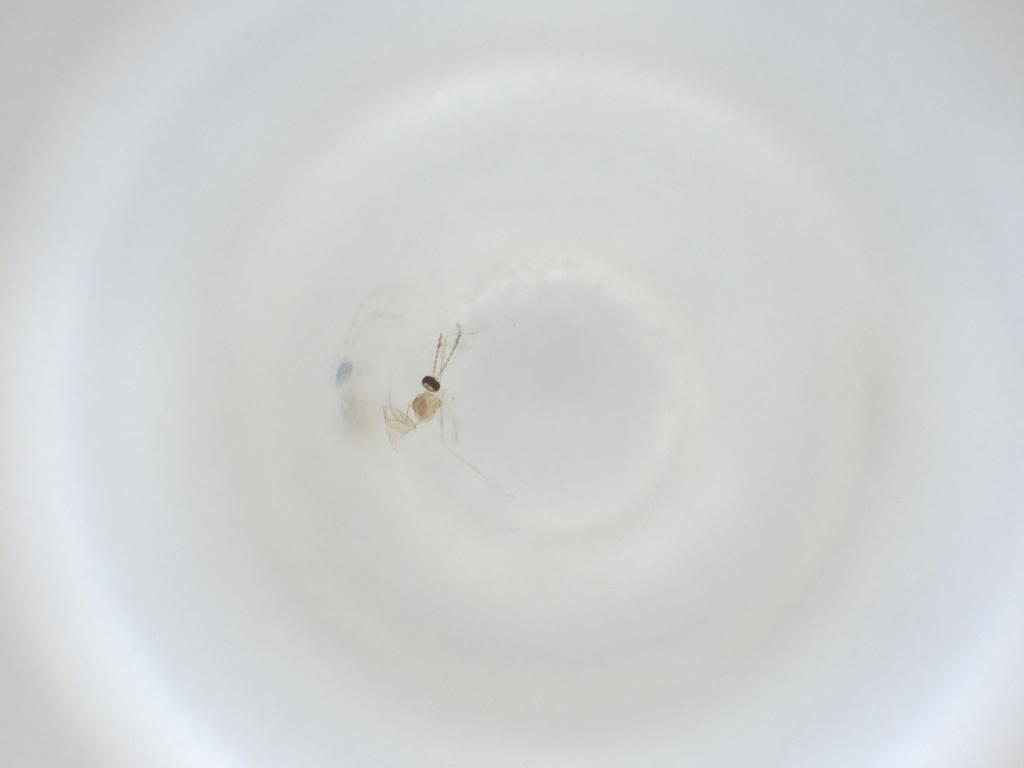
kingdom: Animalia
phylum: Arthropoda
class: Insecta
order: Diptera
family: Cecidomyiidae
